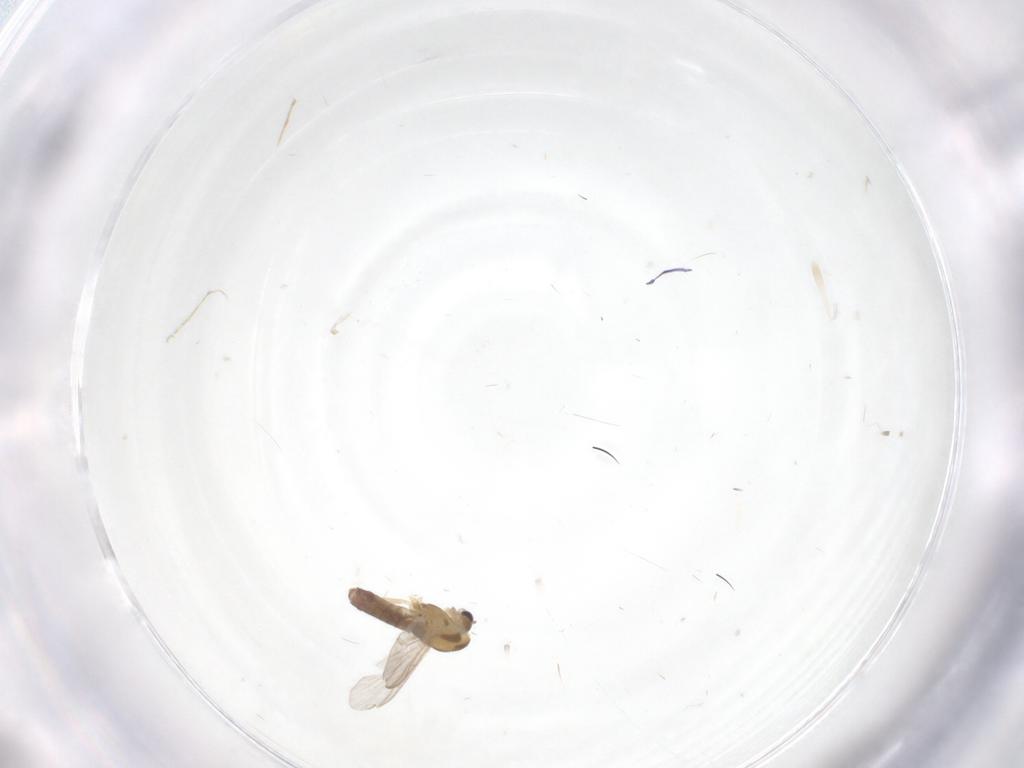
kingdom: Animalia
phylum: Arthropoda
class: Insecta
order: Diptera
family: Chironomidae
